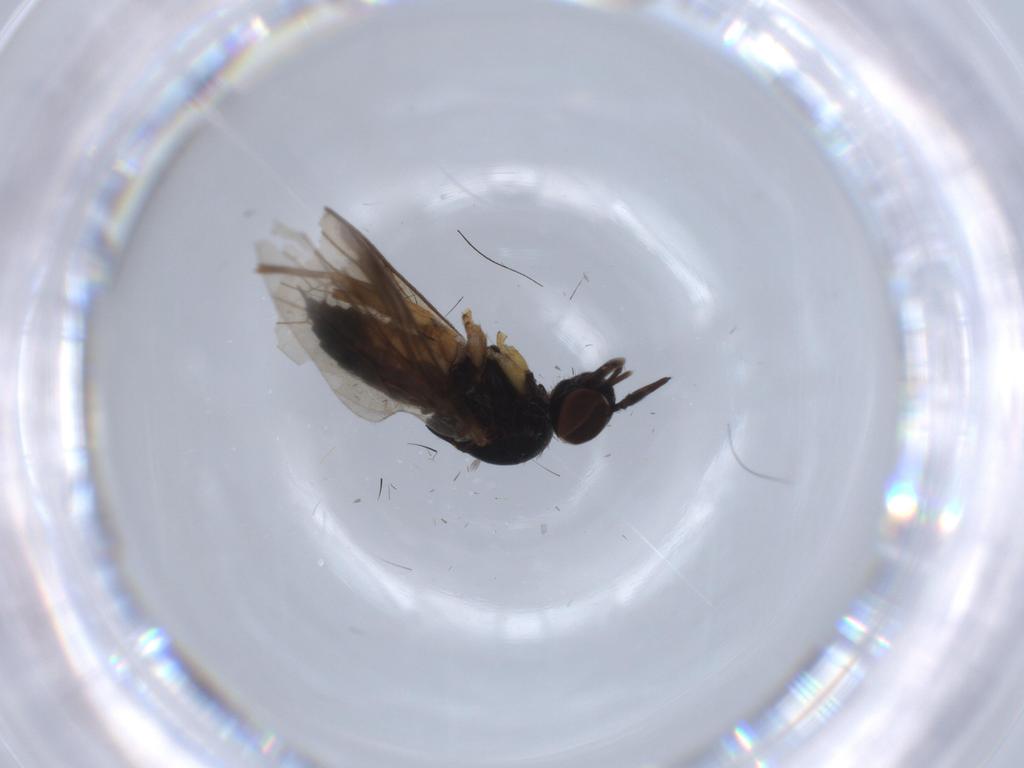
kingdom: Animalia
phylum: Arthropoda
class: Insecta
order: Diptera
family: Iteaphilidae
